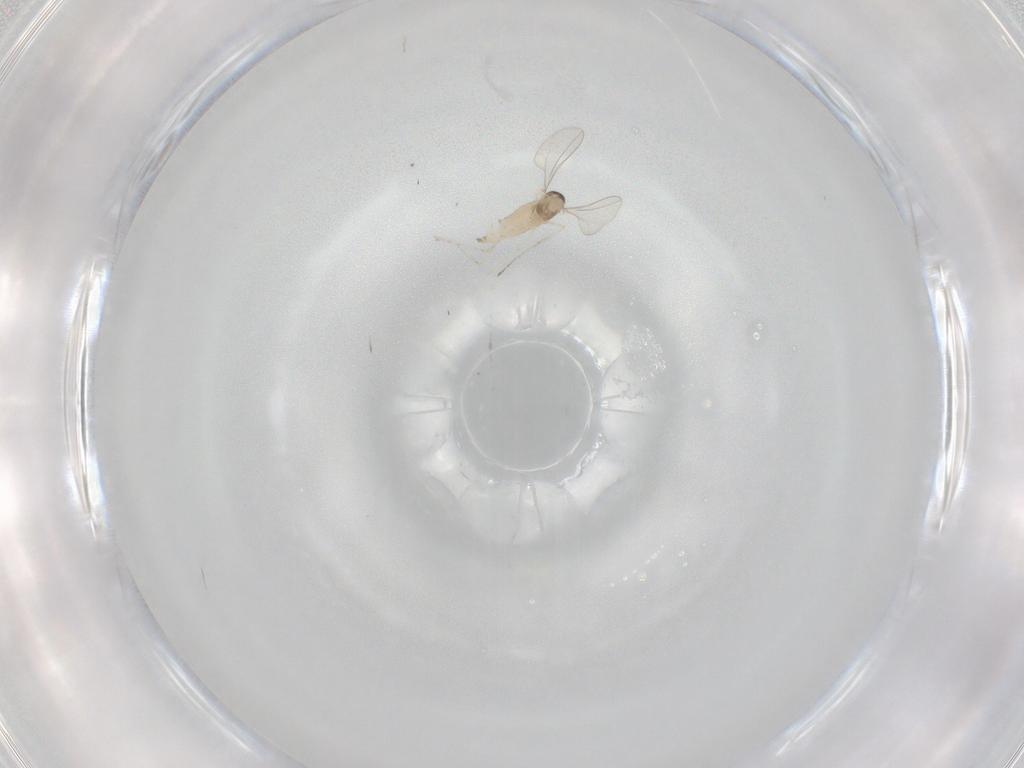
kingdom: Animalia
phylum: Arthropoda
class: Insecta
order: Diptera
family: Cecidomyiidae
